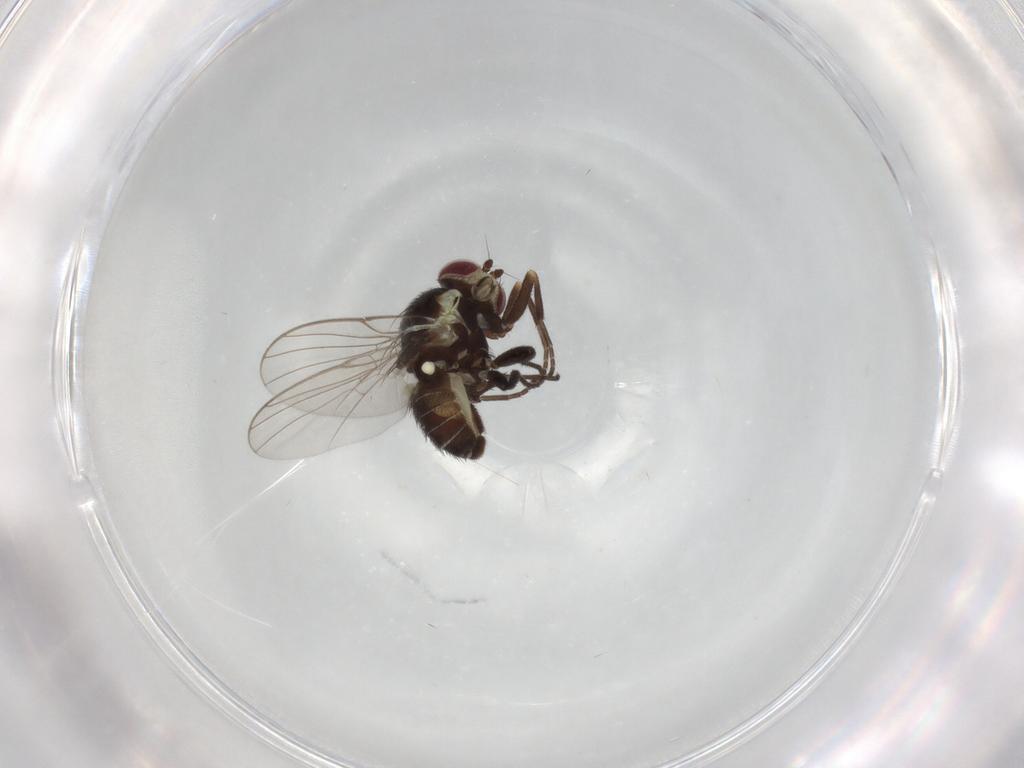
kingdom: Animalia
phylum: Arthropoda
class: Insecta
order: Diptera
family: Agromyzidae
